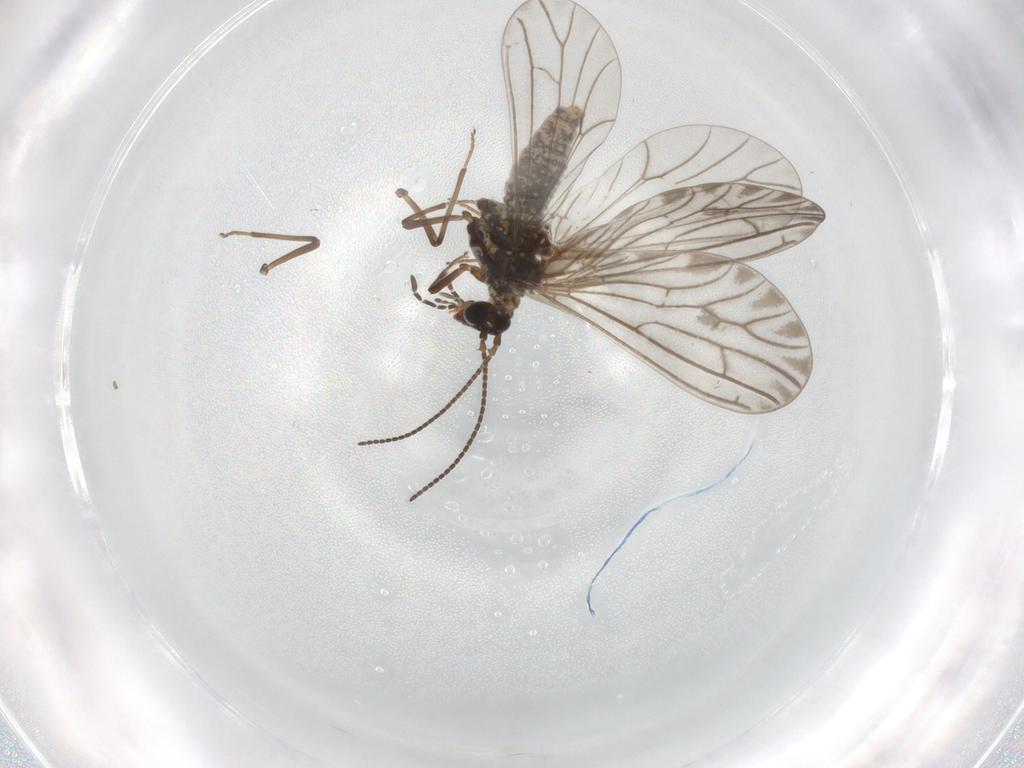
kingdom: Animalia
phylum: Arthropoda
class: Insecta
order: Neuroptera
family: Coniopterygidae
